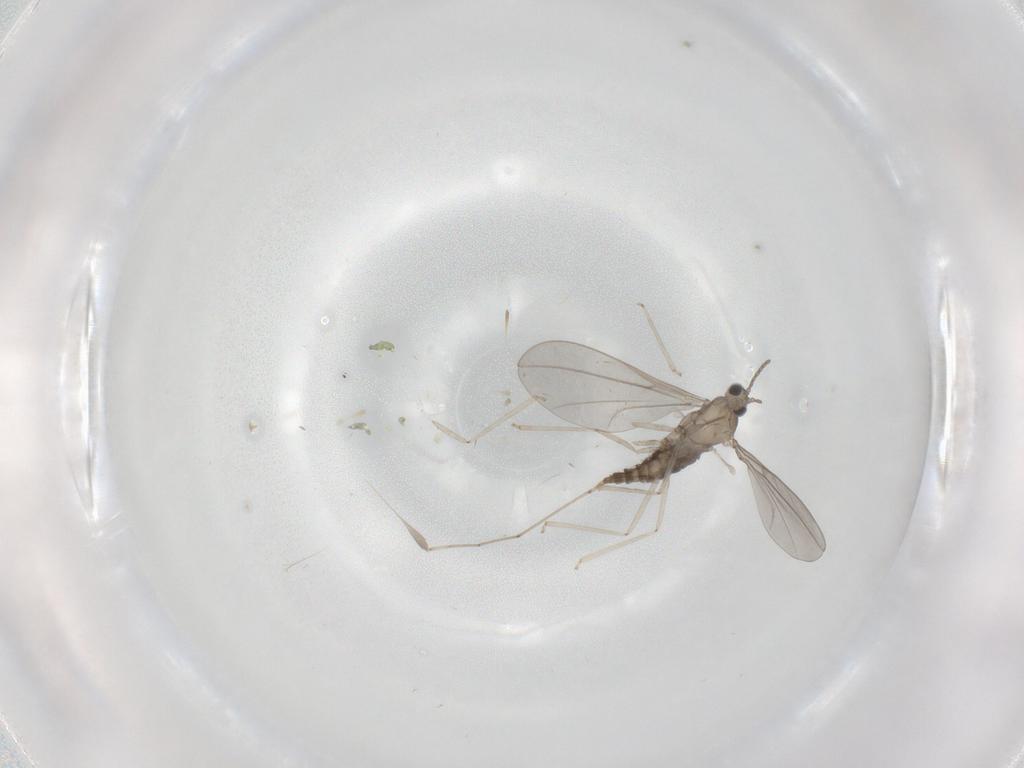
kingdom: Animalia
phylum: Arthropoda
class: Insecta
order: Diptera
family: Cecidomyiidae
